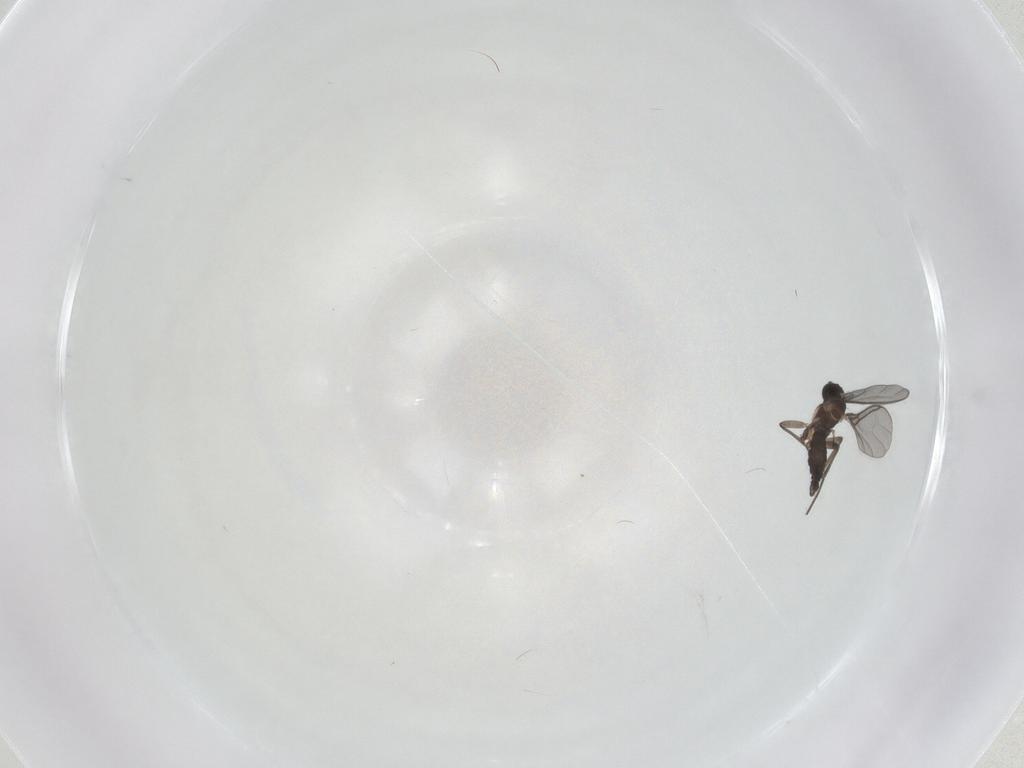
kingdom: Animalia
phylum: Arthropoda
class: Insecta
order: Diptera
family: Sciaridae
